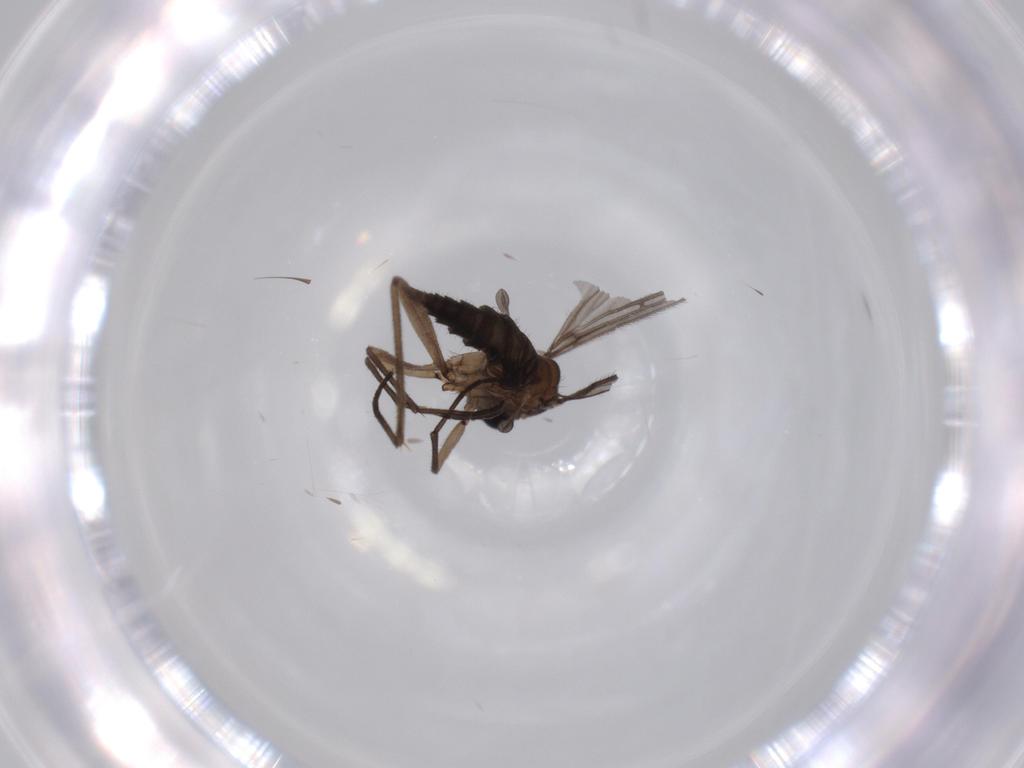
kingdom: Animalia
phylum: Arthropoda
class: Insecta
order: Diptera
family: Sciaridae
